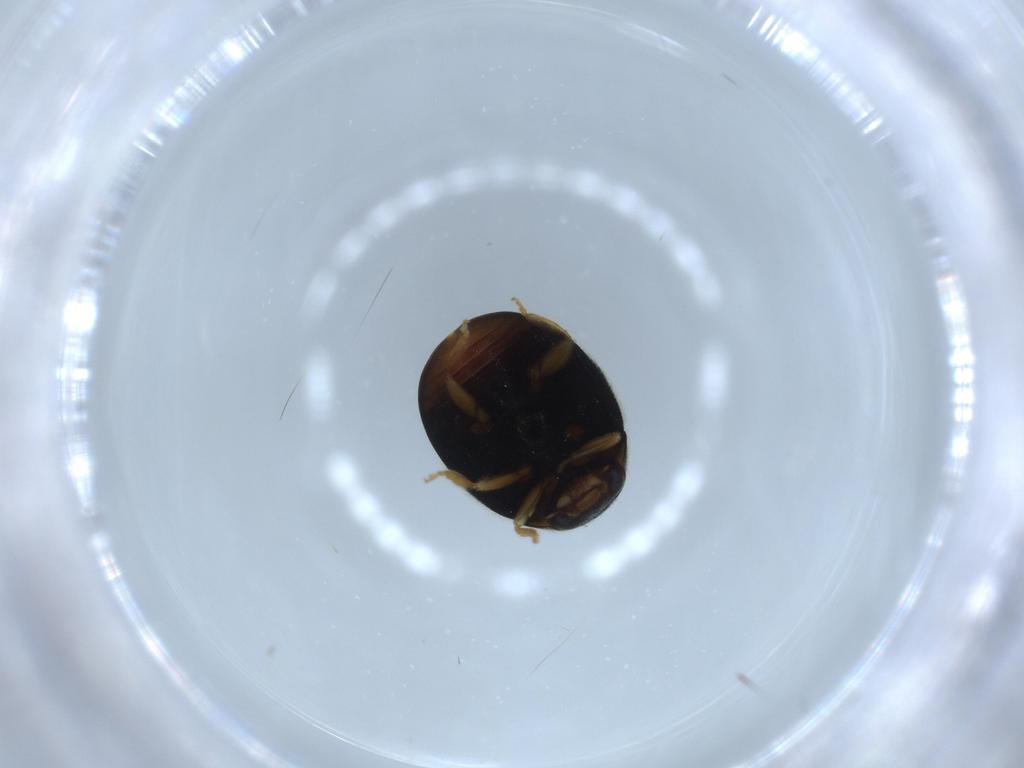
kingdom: Animalia
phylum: Arthropoda
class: Insecta
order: Coleoptera
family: Coccinellidae
